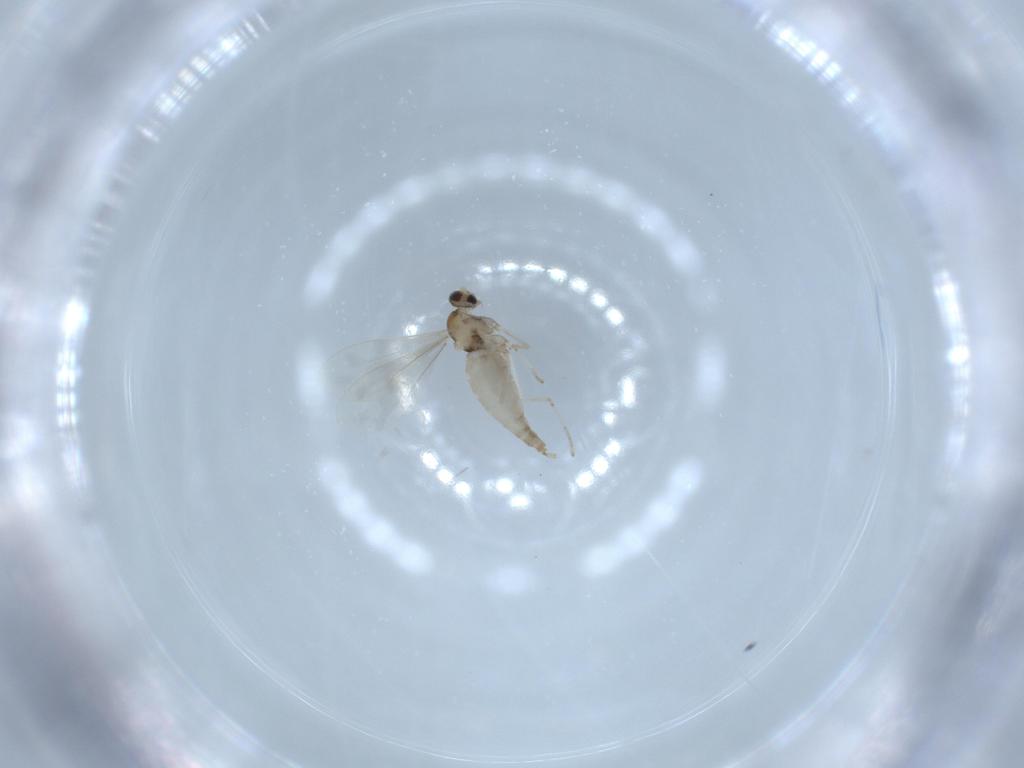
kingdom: Animalia
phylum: Arthropoda
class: Insecta
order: Diptera
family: Cecidomyiidae
